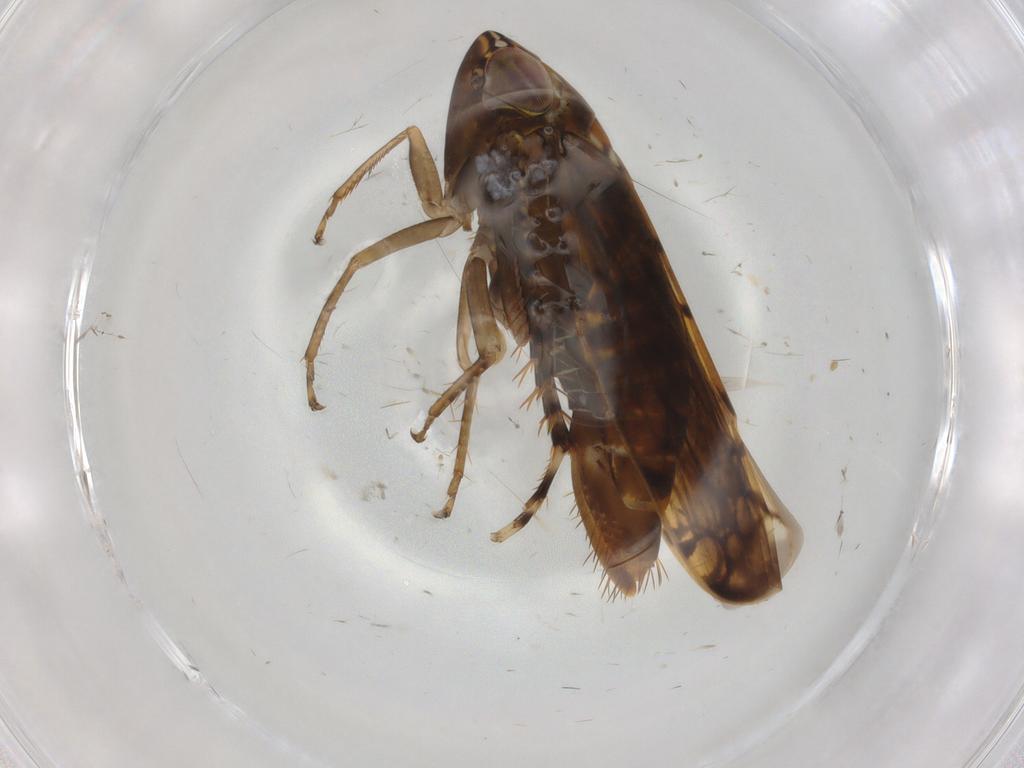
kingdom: Animalia
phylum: Arthropoda
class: Insecta
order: Hemiptera
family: Cicadellidae
